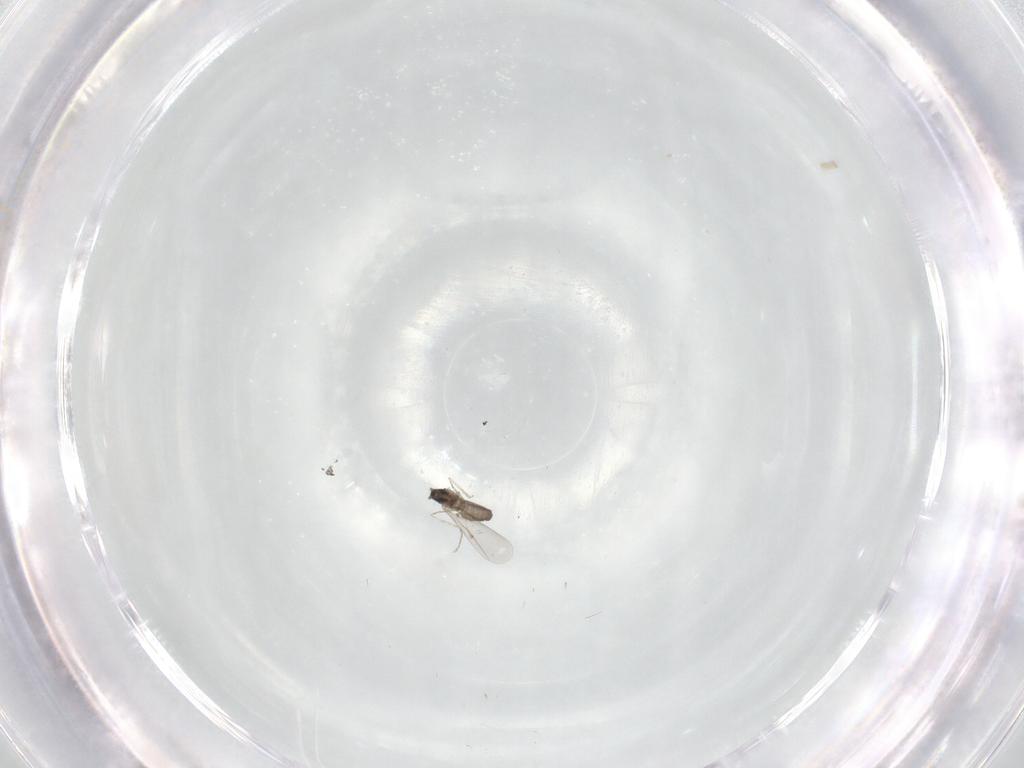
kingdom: Animalia
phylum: Arthropoda
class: Insecta
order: Diptera
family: Cecidomyiidae
